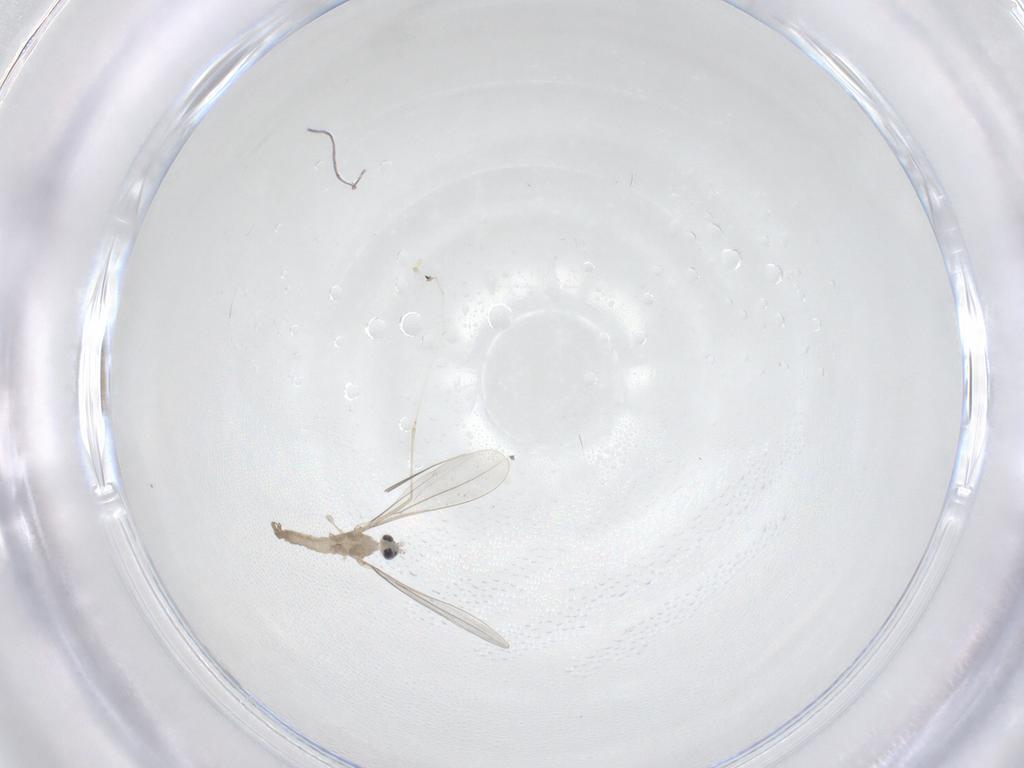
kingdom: Animalia
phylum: Arthropoda
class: Insecta
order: Diptera
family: Cecidomyiidae
